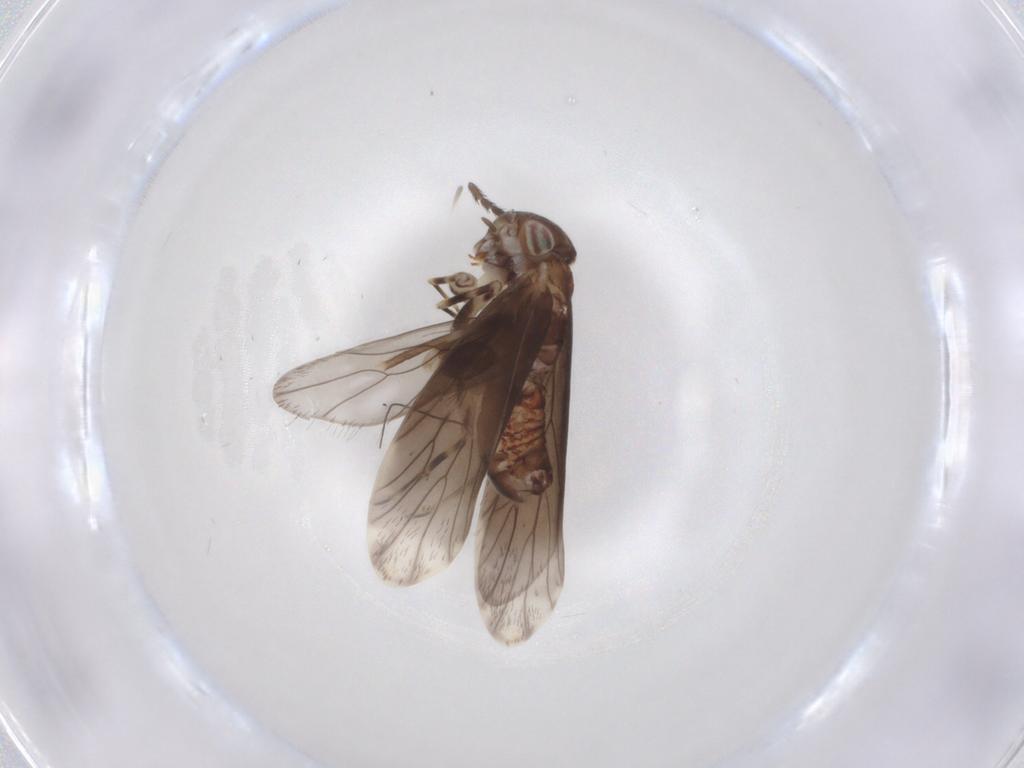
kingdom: Animalia
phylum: Arthropoda
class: Insecta
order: Psocodea
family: Amphientomidae
